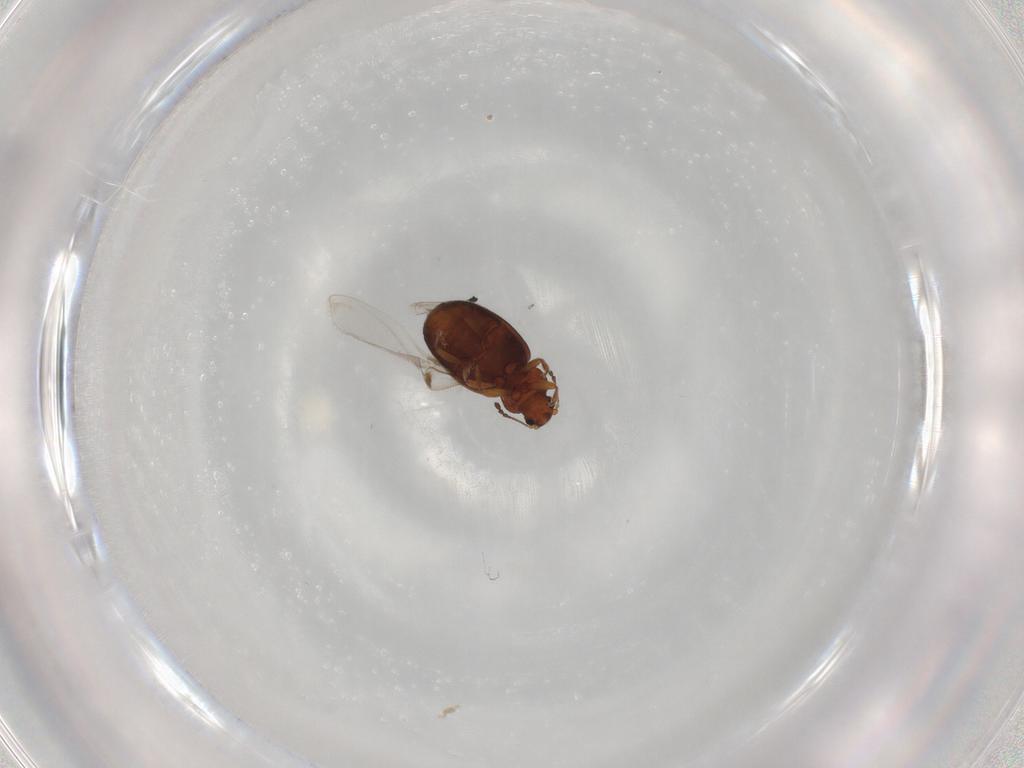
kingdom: Animalia
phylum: Arthropoda
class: Insecta
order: Coleoptera
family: Latridiidae
